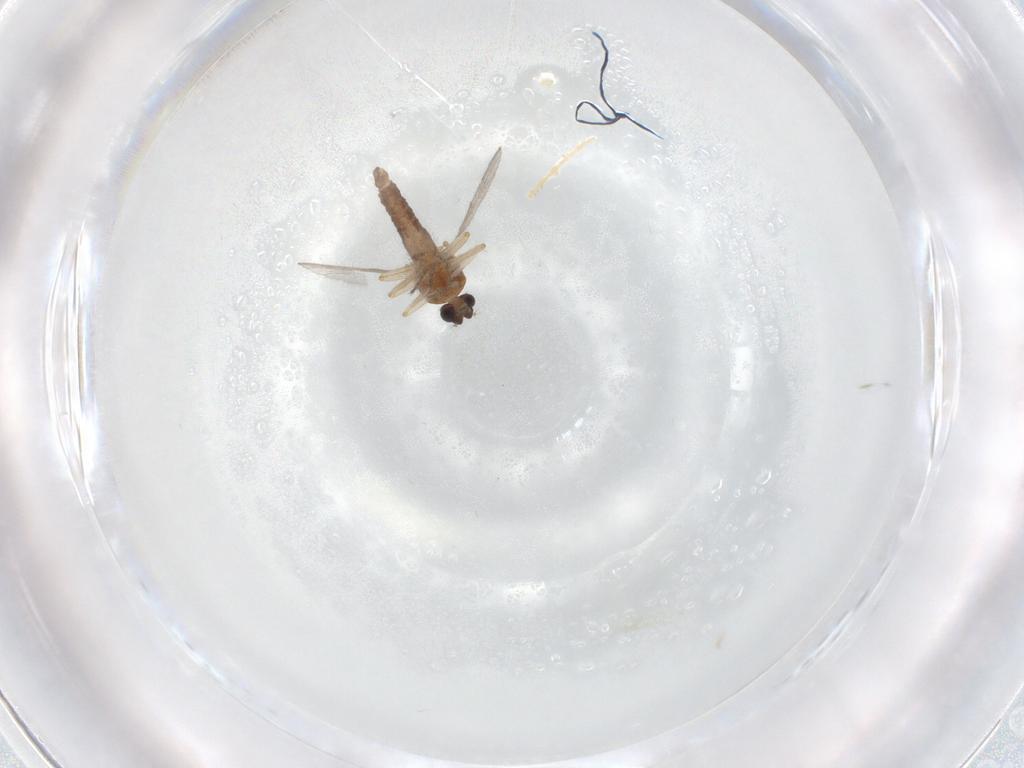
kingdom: Animalia
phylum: Arthropoda
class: Insecta
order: Diptera
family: Ceratopogonidae
